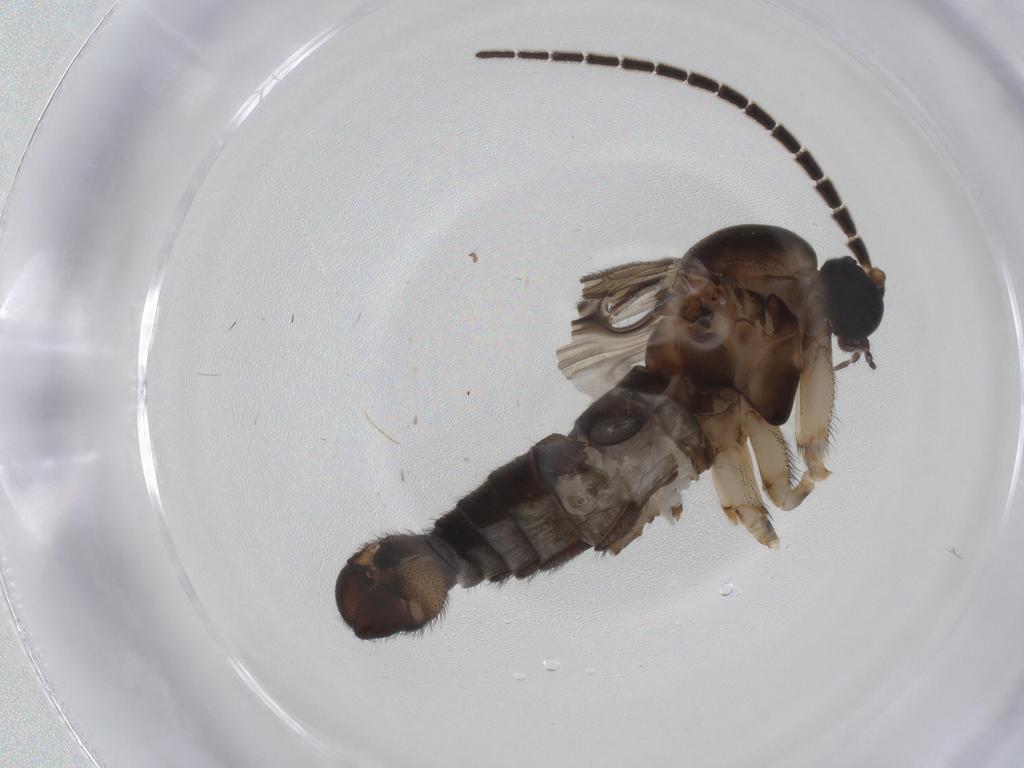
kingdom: Animalia
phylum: Arthropoda
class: Insecta
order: Diptera
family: Sciaridae
